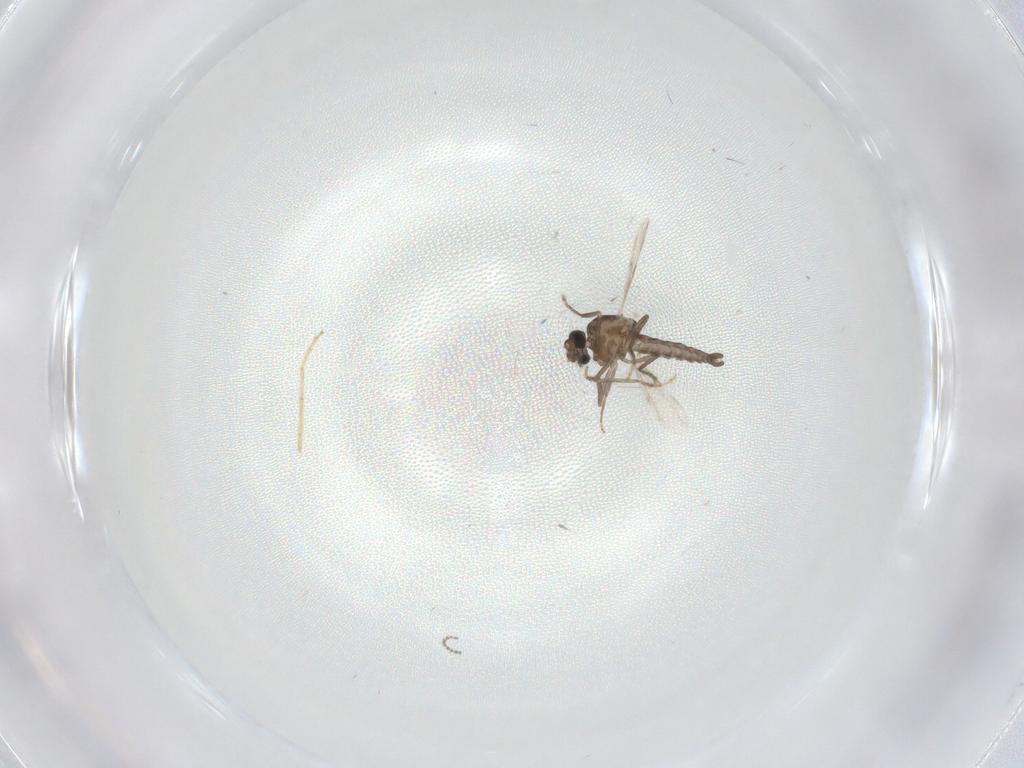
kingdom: Animalia
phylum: Arthropoda
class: Insecta
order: Diptera
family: Ceratopogonidae
